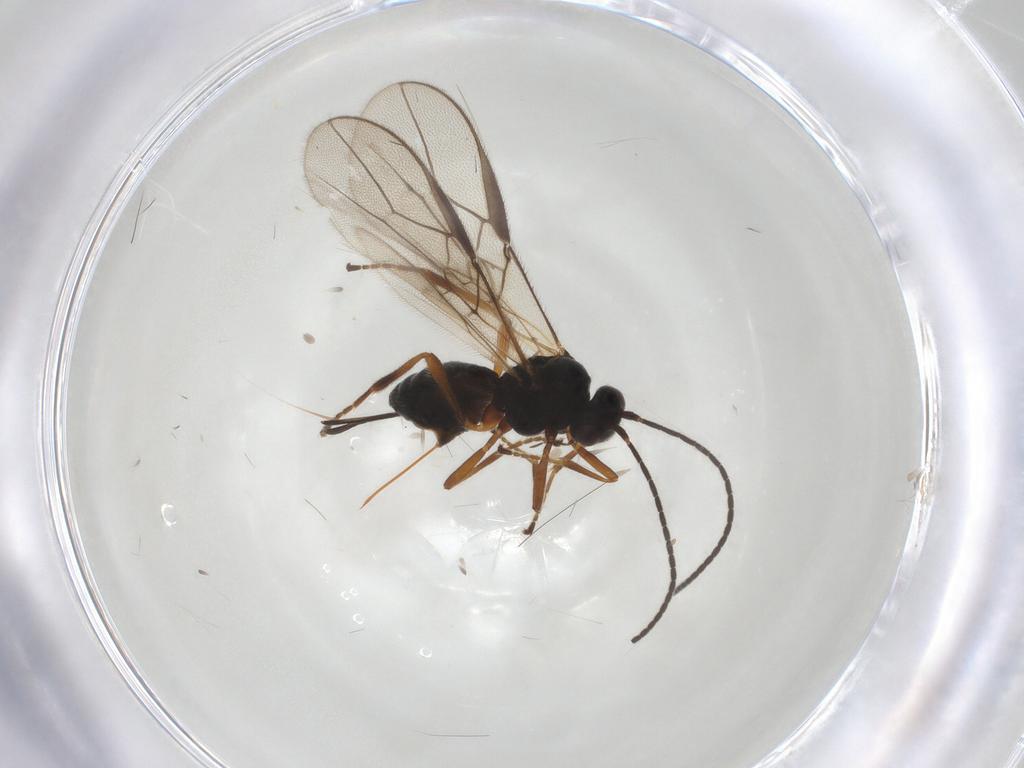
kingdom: Animalia
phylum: Arthropoda
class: Insecta
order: Hymenoptera
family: Braconidae
